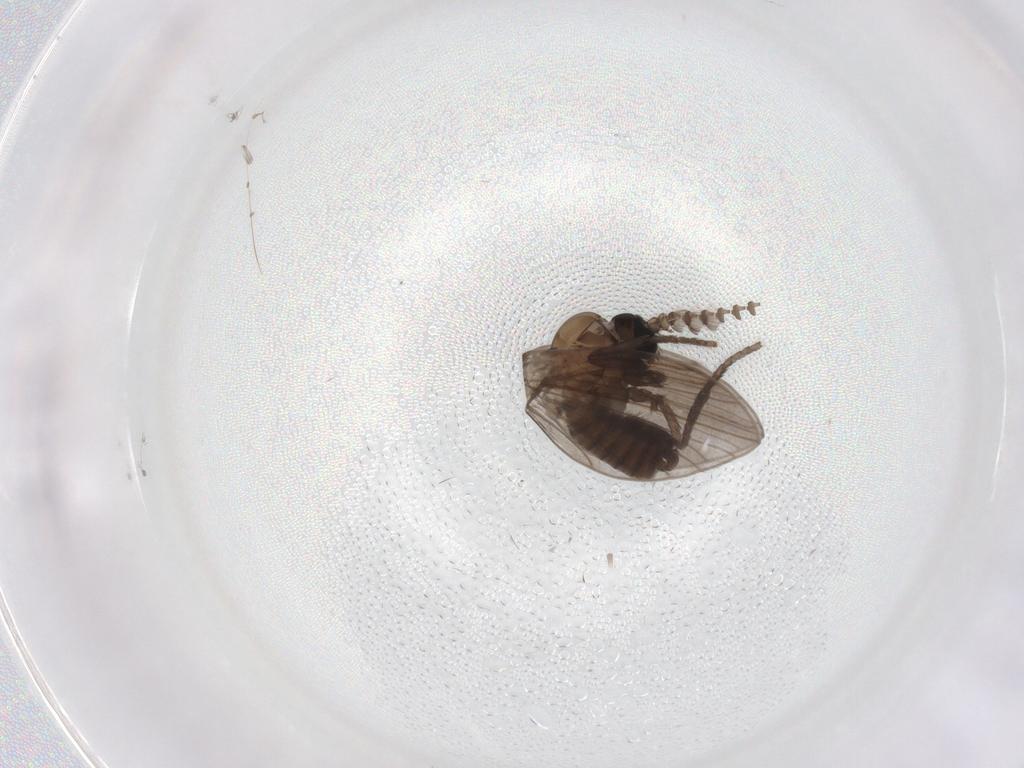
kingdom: Animalia
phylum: Arthropoda
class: Insecta
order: Diptera
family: Psychodidae
